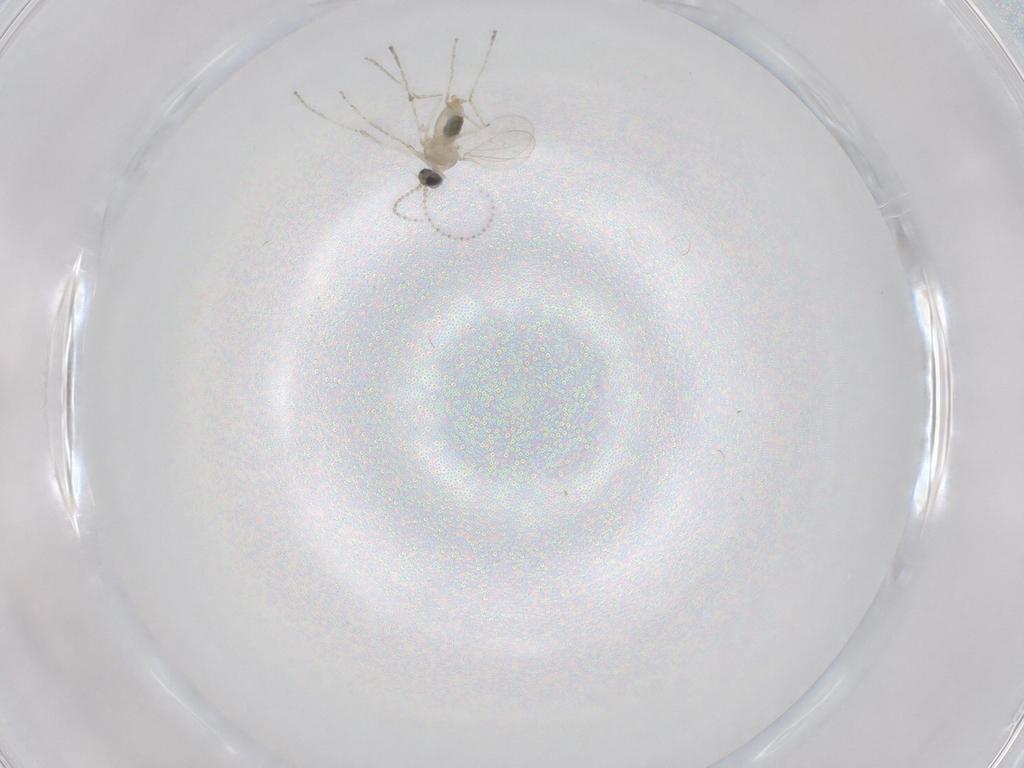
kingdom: Animalia
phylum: Arthropoda
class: Insecta
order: Diptera
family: Cecidomyiidae
